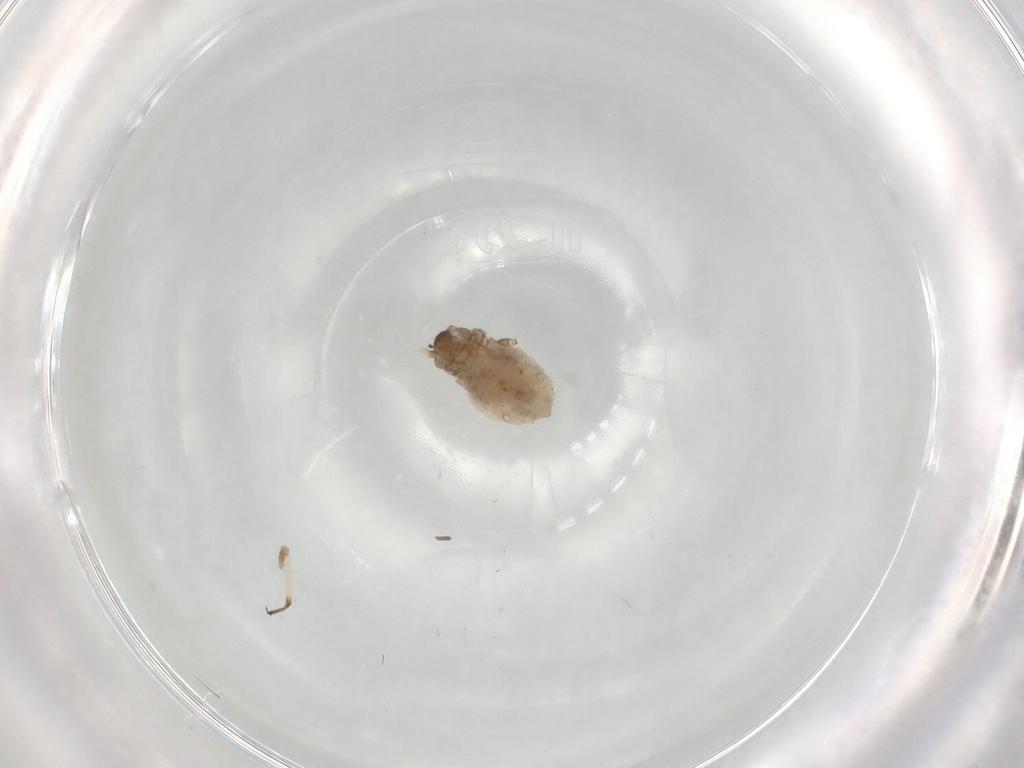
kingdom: Animalia
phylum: Arthropoda
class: Insecta
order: Hemiptera
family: Aphididae
